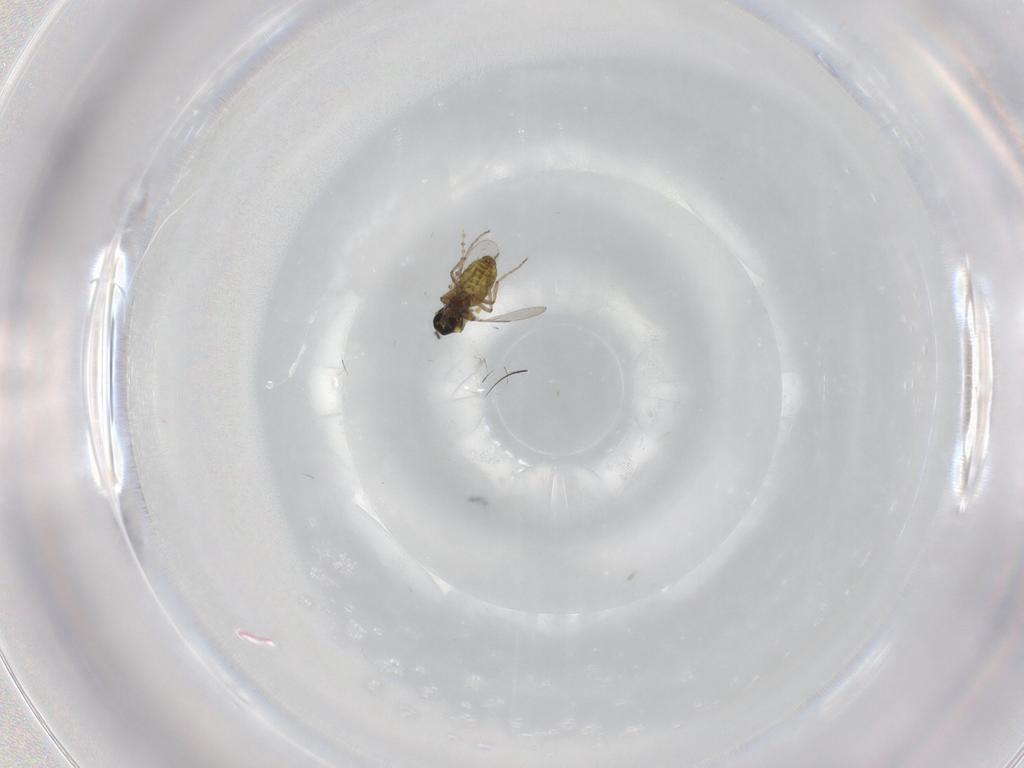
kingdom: Animalia
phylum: Arthropoda
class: Insecta
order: Diptera
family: Ceratopogonidae
